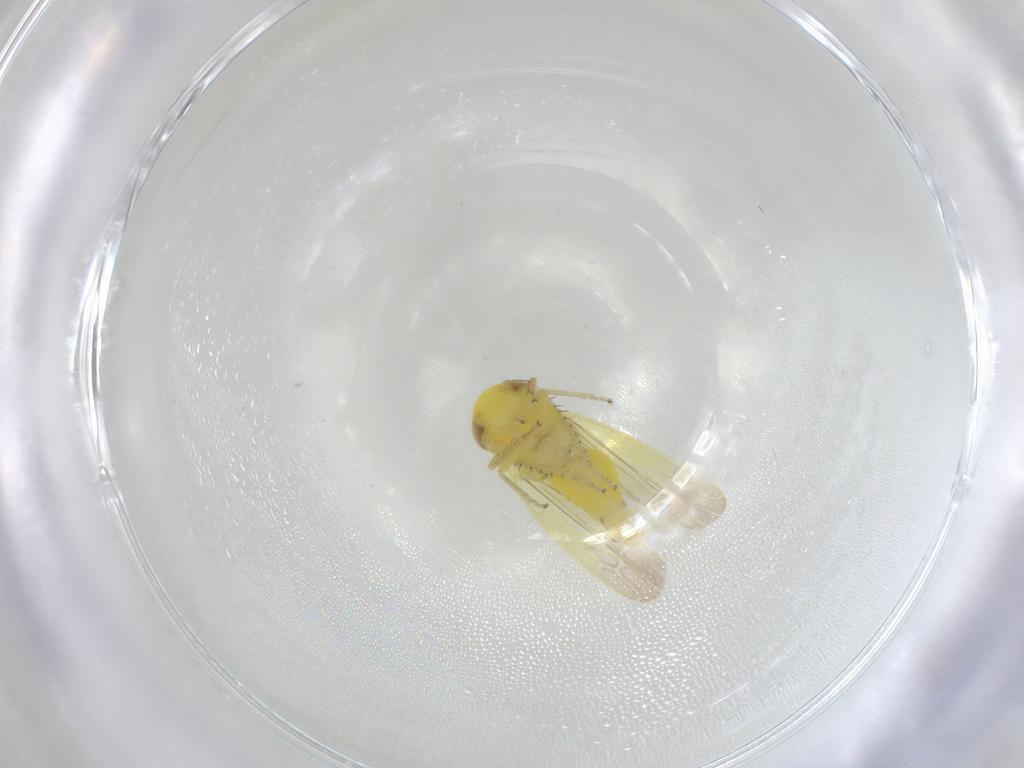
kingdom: Animalia
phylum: Arthropoda
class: Insecta
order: Hemiptera
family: Cicadellidae
